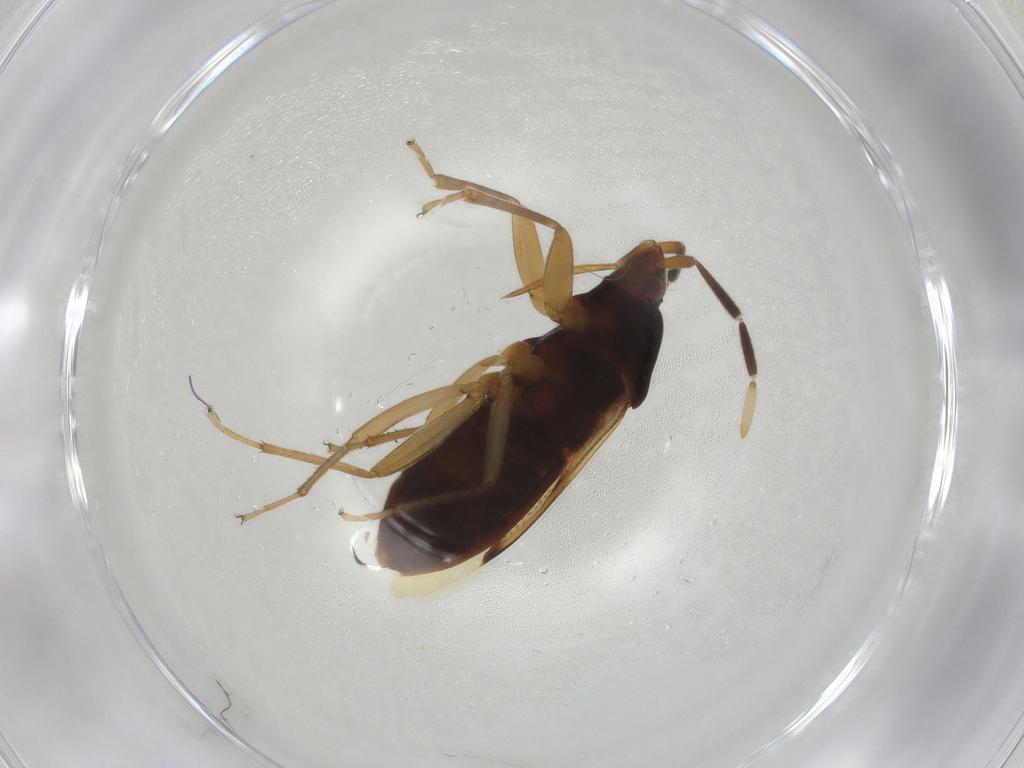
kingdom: Animalia
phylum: Arthropoda
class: Insecta
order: Hemiptera
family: Rhyparochromidae
